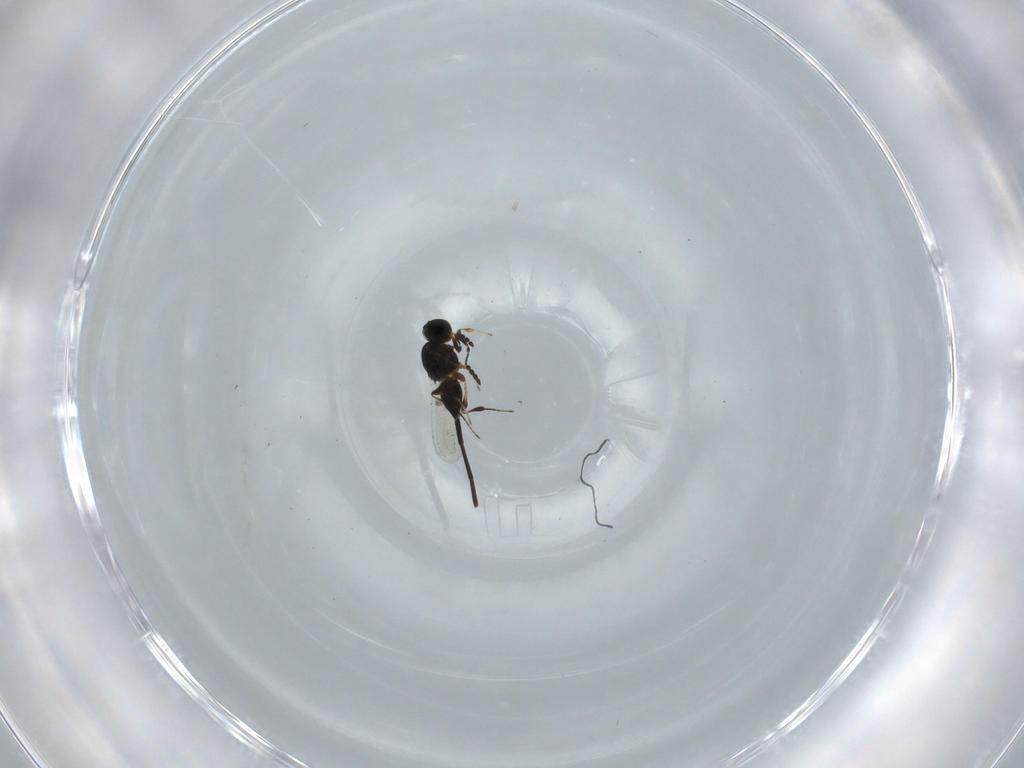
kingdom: Animalia
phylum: Arthropoda
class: Insecta
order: Hymenoptera
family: Platygastridae
